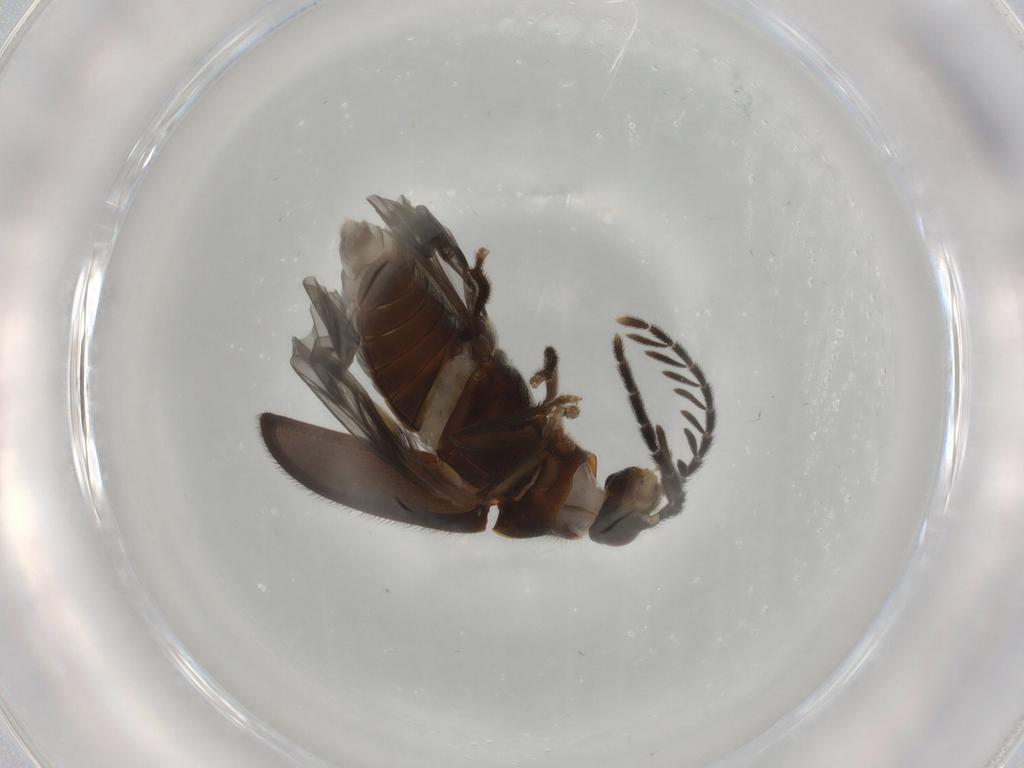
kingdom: Animalia
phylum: Arthropoda
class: Insecta
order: Coleoptera
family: Ptilodactylidae
